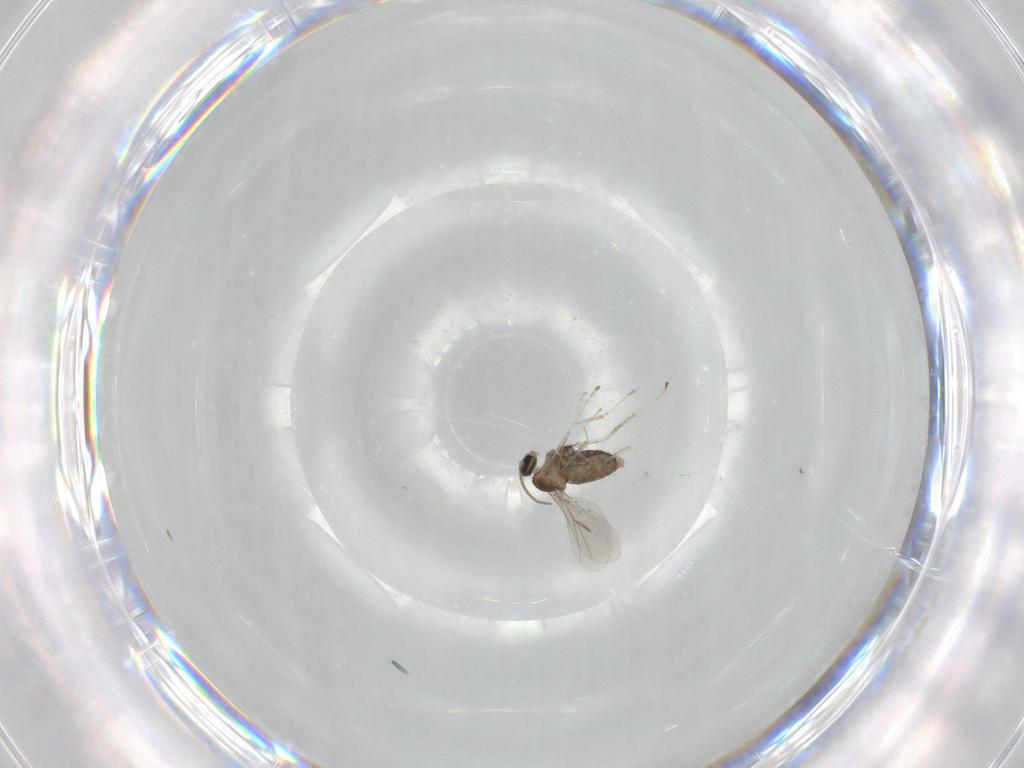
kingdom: Animalia
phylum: Arthropoda
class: Insecta
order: Diptera
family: Cecidomyiidae
